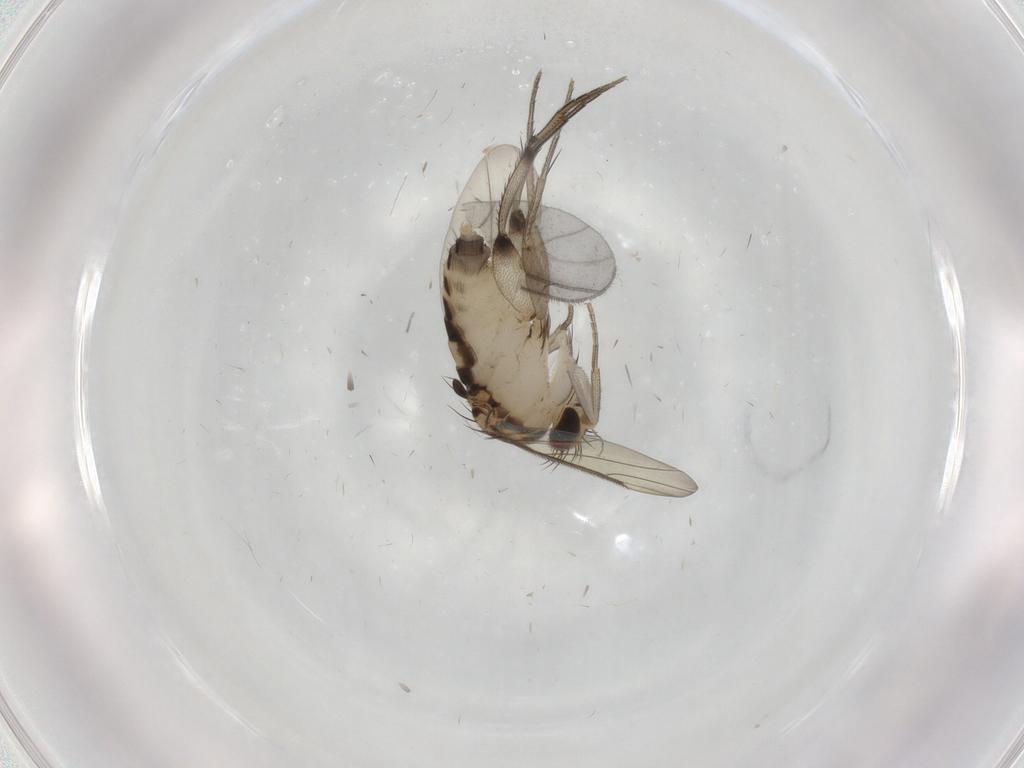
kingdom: Animalia
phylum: Arthropoda
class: Insecta
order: Diptera
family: Phoridae
